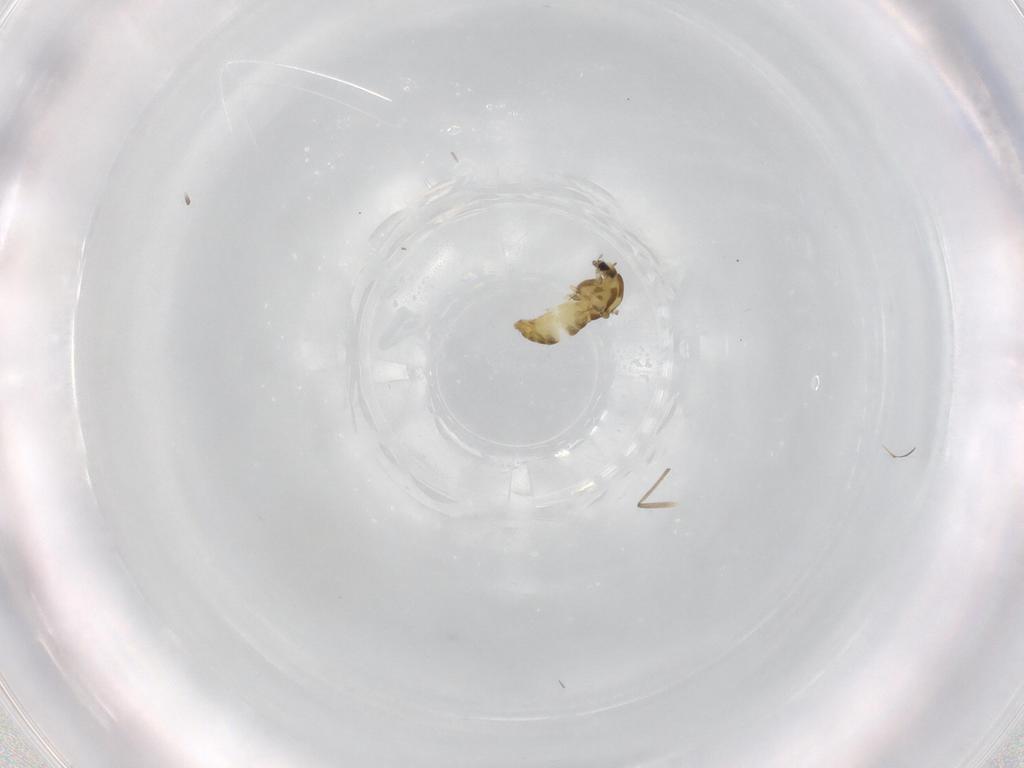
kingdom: Animalia
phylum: Arthropoda
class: Insecta
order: Diptera
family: Chironomidae
